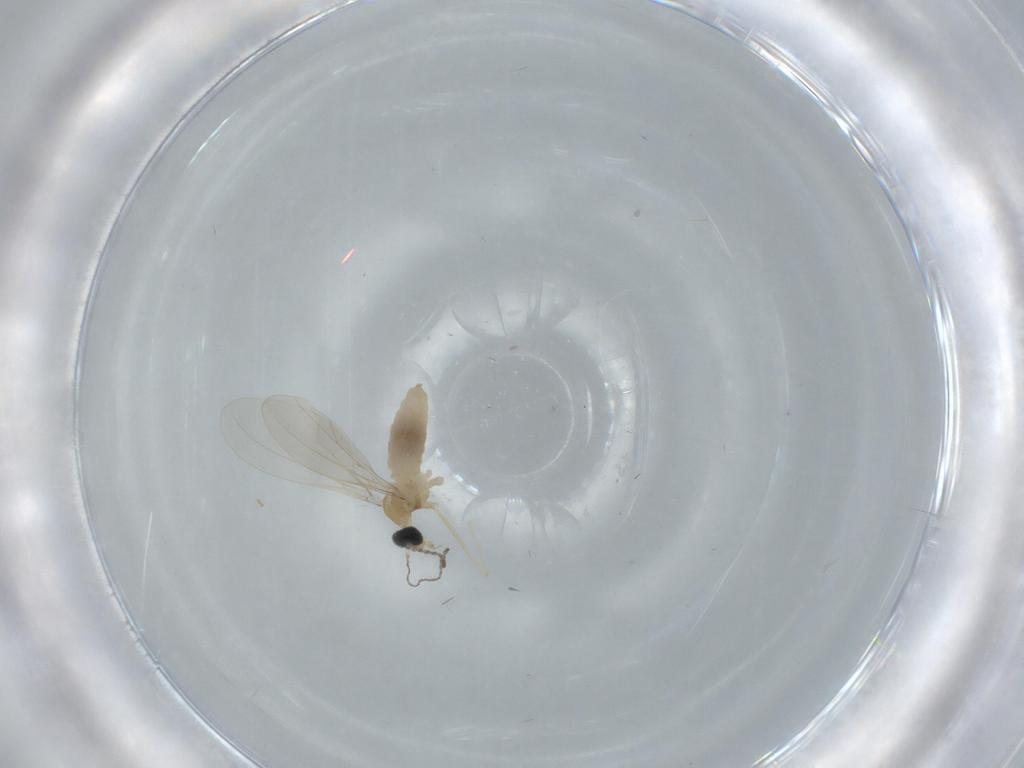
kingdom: Animalia
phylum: Arthropoda
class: Insecta
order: Diptera
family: Cecidomyiidae
